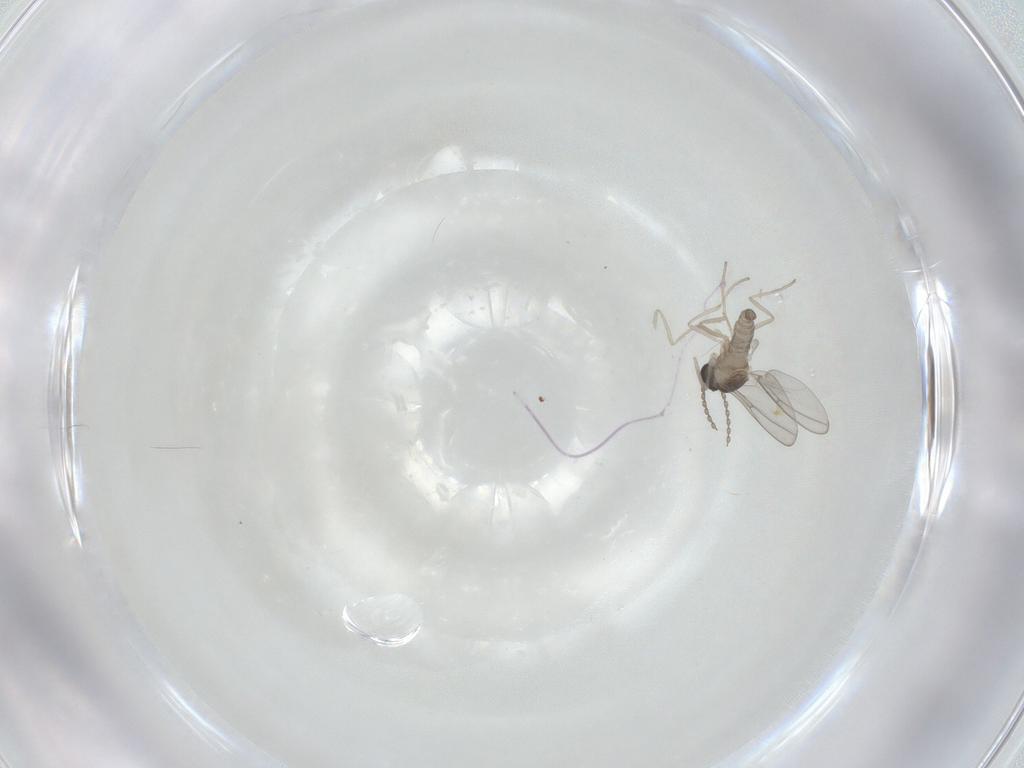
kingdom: Animalia
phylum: Arthropoda
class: Insecta
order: Diptera
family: Cecidomyiidae
